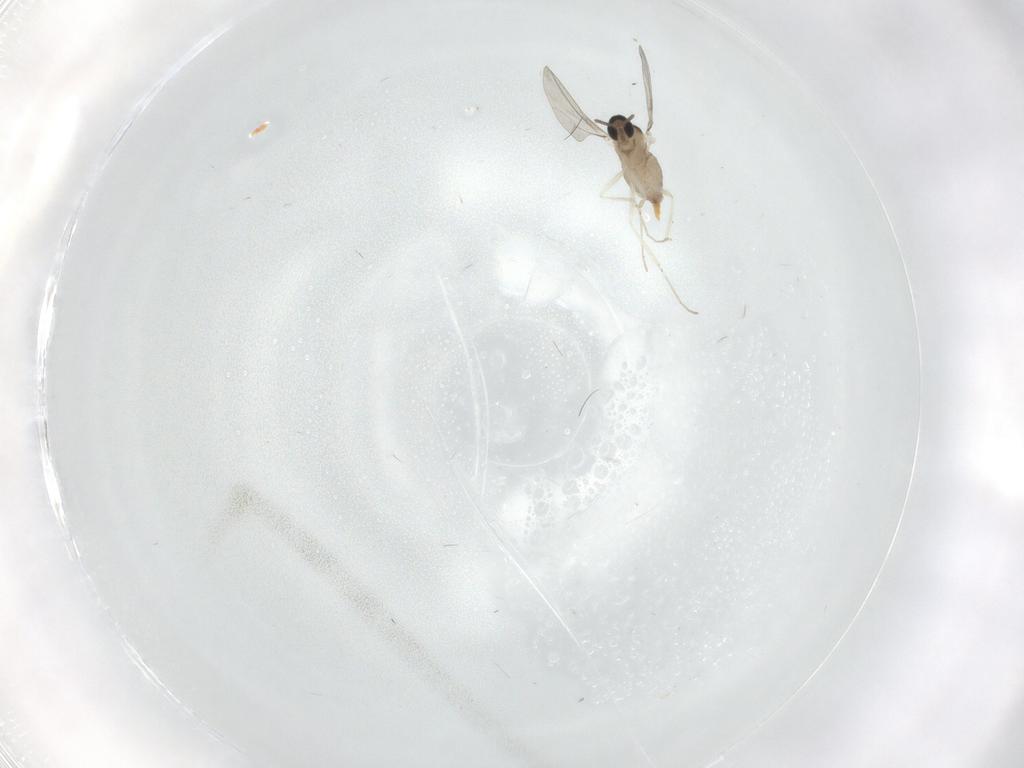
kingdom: Animalia
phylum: Arthropoda
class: Insecta
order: Diptera
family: Cecidomyiidae
